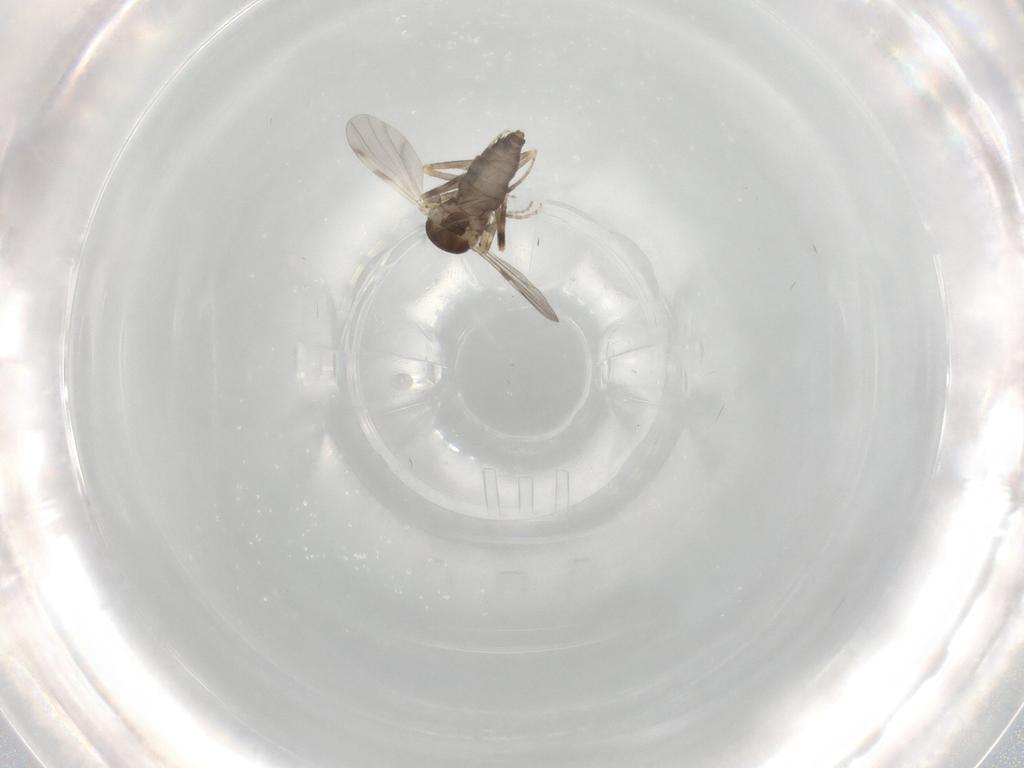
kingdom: Animalia
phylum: Arthropoda
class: Insecta
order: Diptera
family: Ceratopogonidae
